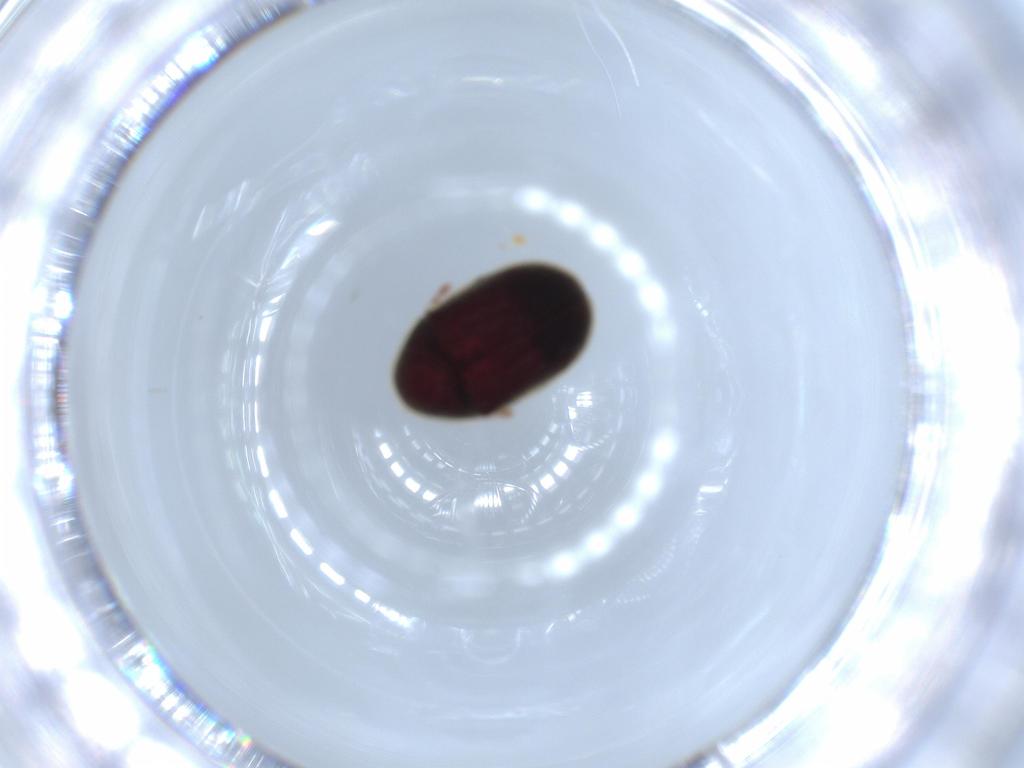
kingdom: Animalia
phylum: Arthropoda
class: Insecta
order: Coleoptera
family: Ptinidae
